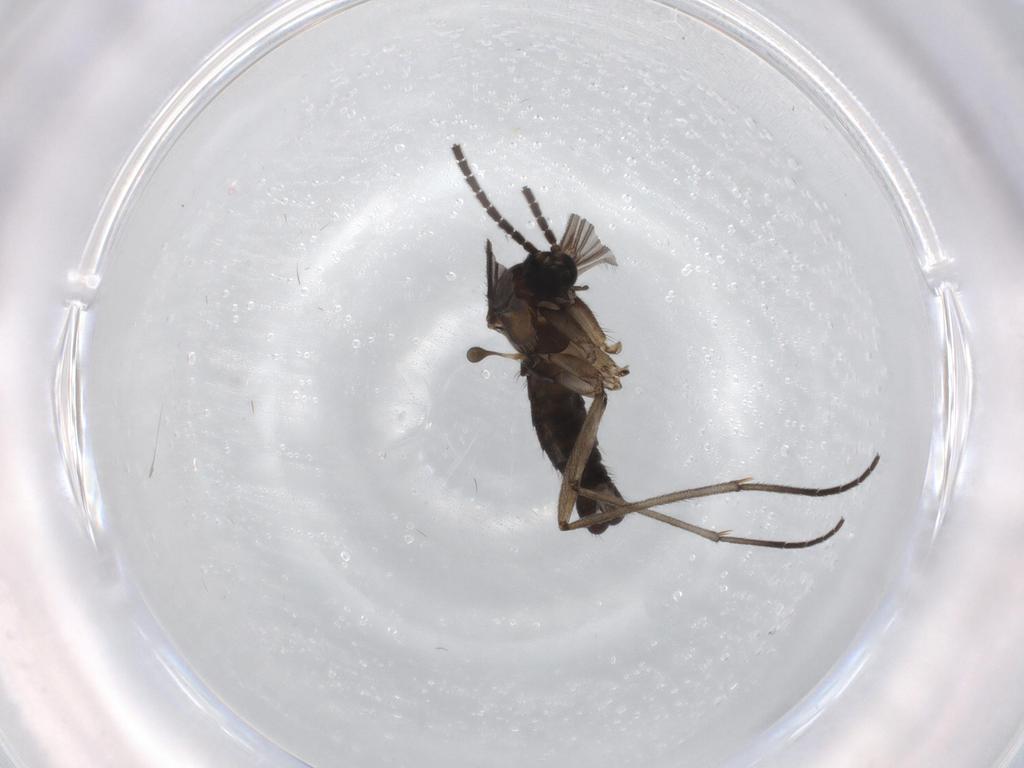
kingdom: Animalia
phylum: Arthropoda
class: Insecta
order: Diptera
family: Sciaridae
